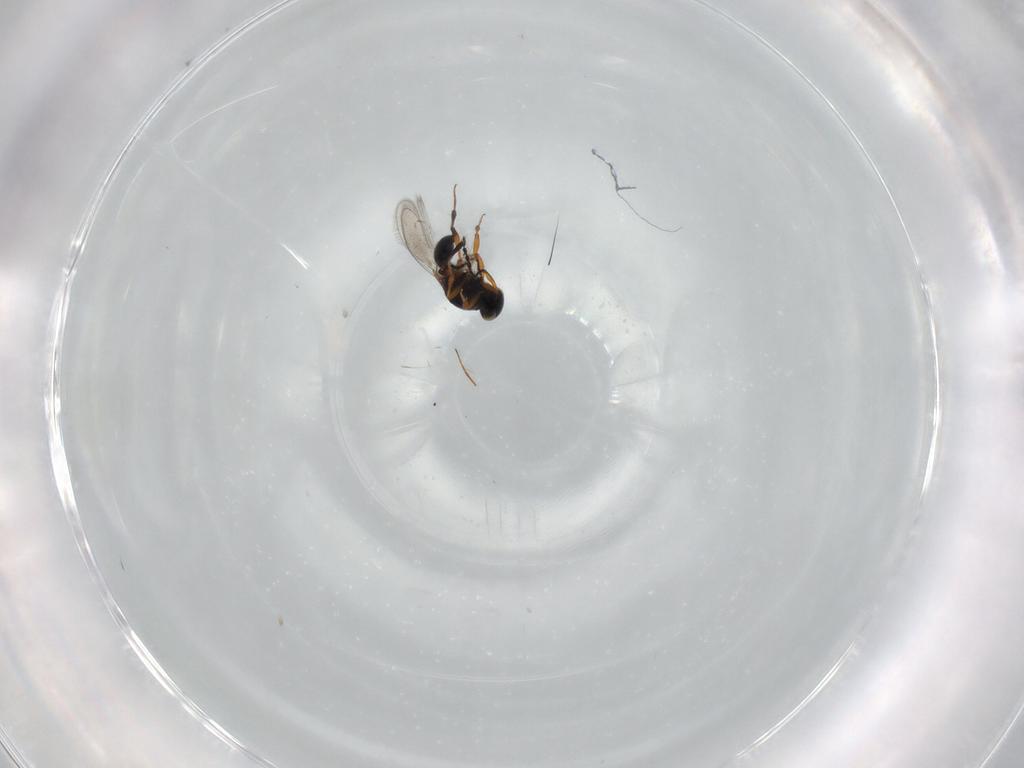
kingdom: Animalia
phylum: Arthropoda
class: Insecta
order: Hymenoptera
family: Platygastridae
